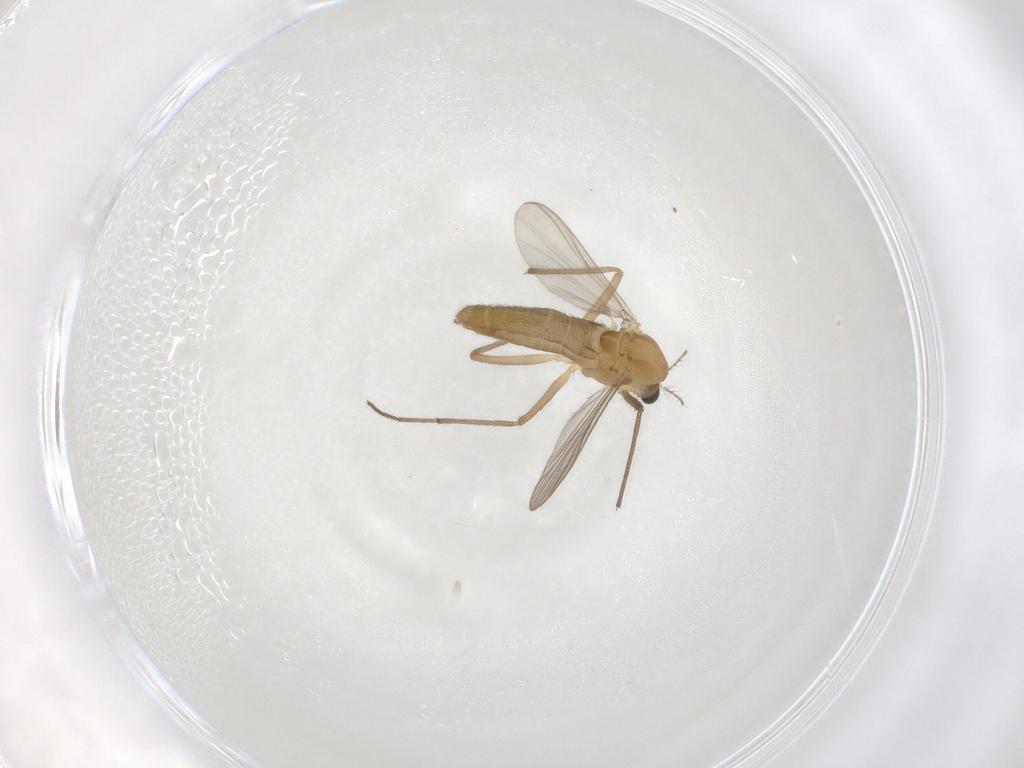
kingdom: Animalia
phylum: Arthropoda
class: Insecta
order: Diptera
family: Chironomidae
